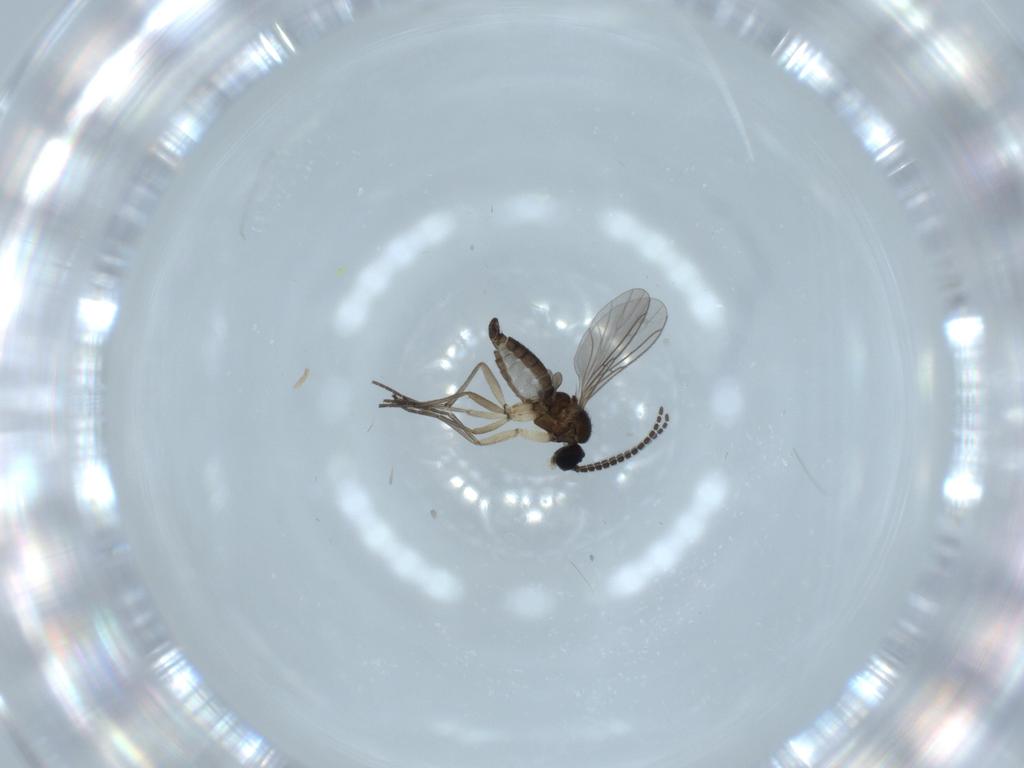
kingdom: Animalia
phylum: Arthropoda
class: Insecta
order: Diptera
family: Sciaridae
